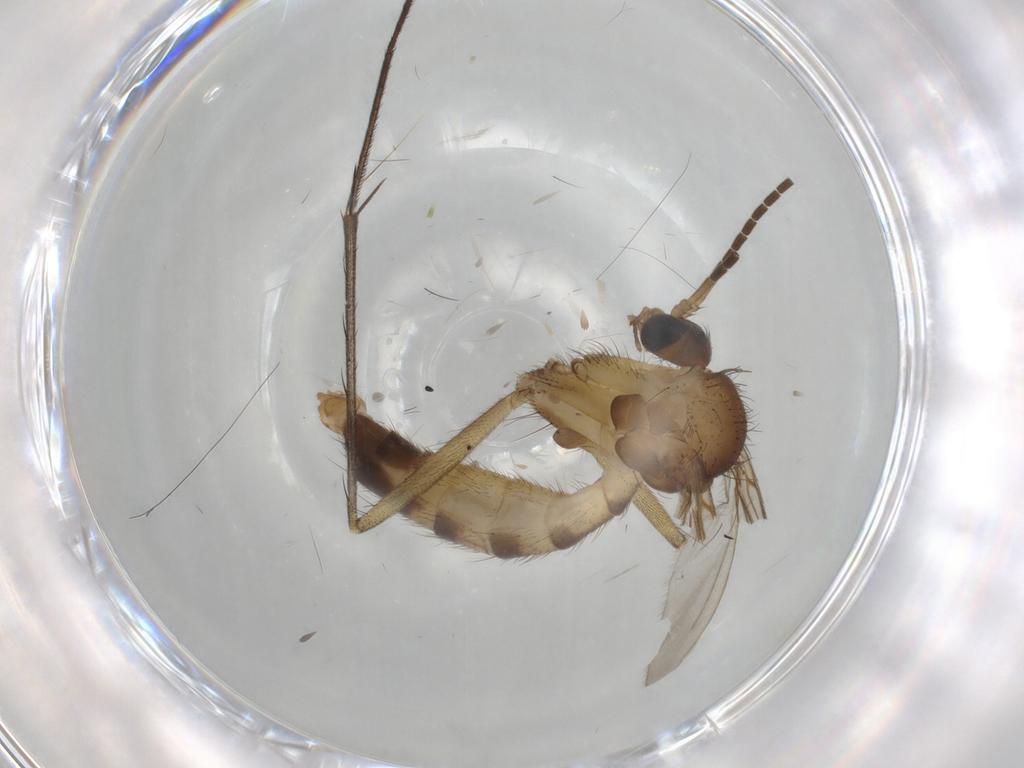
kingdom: Animalia
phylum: Arthropoda
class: Insecta
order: Diptera
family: Mycetophilidae
